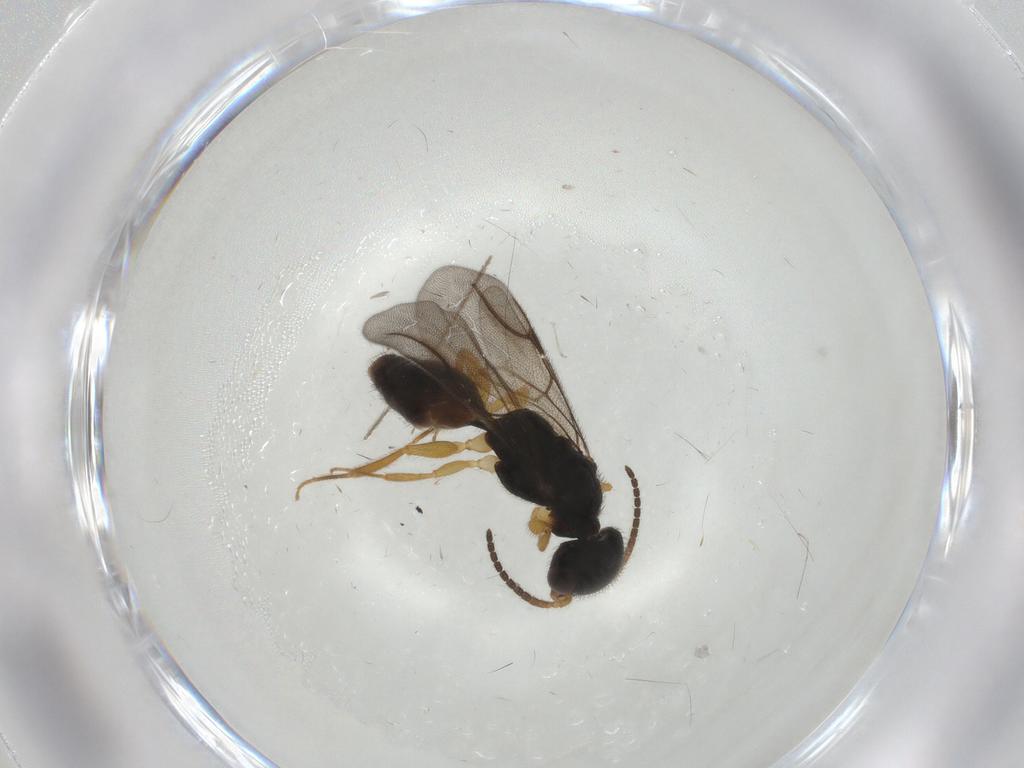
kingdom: Animalia
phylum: Arthropoda
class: Insecta
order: Hymenoptera
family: Bethylidae
